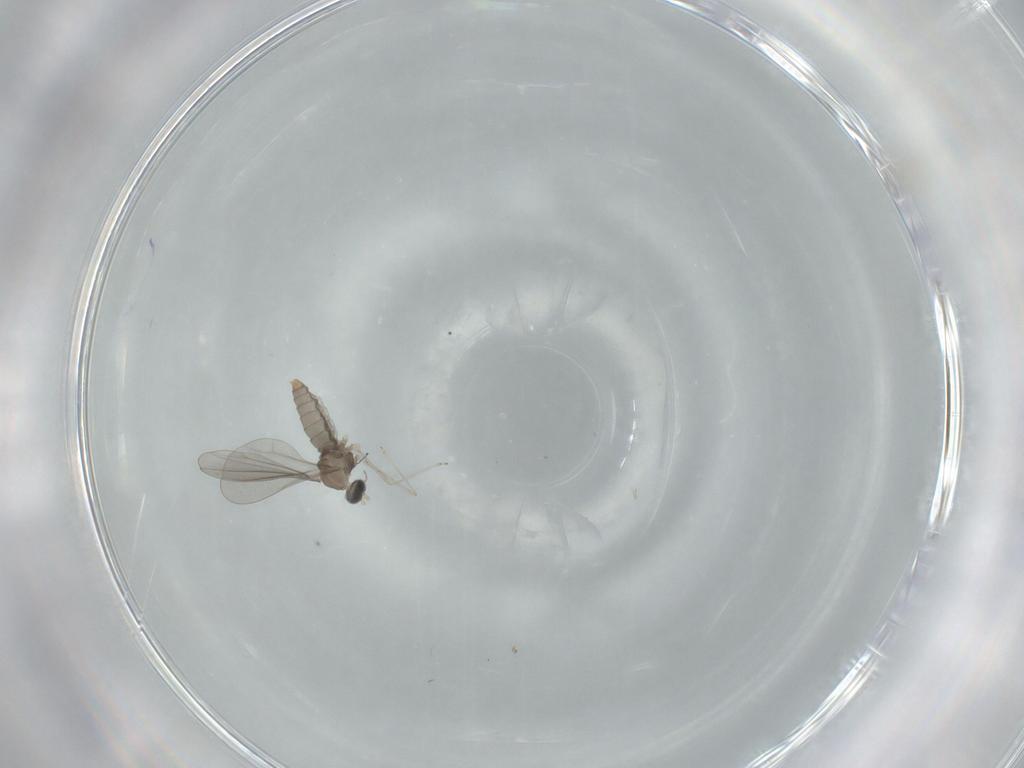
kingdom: Animalia
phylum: Arthropoda
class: Insecta
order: Diptera
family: Cecidomyiidae
